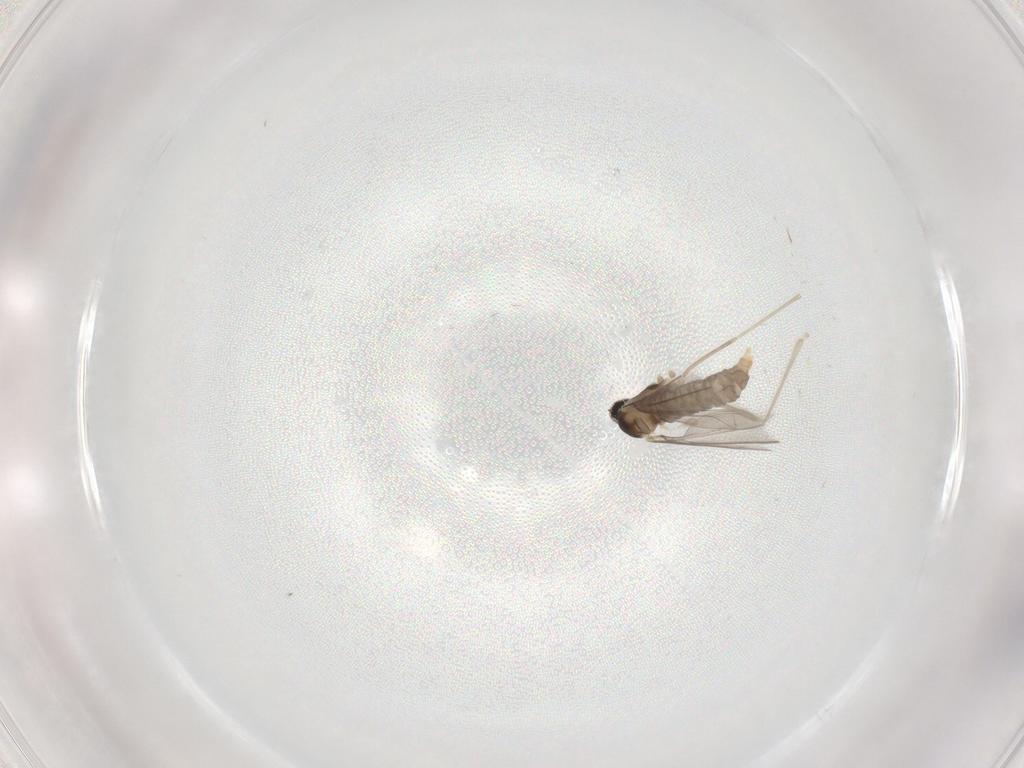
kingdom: Animalia
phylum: Arthropoda
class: Insecta
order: Diptera
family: Cecidomyiidae
